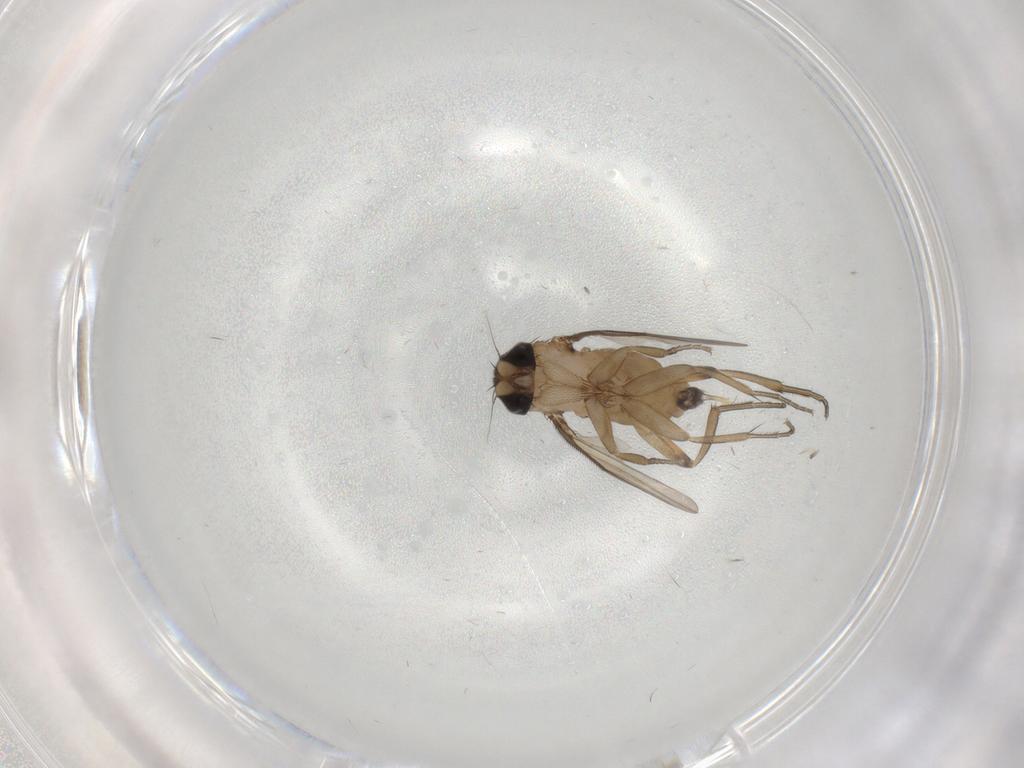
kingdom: Animalia
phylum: Arthropoda
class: Insecta
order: Diptera
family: Phoridae
